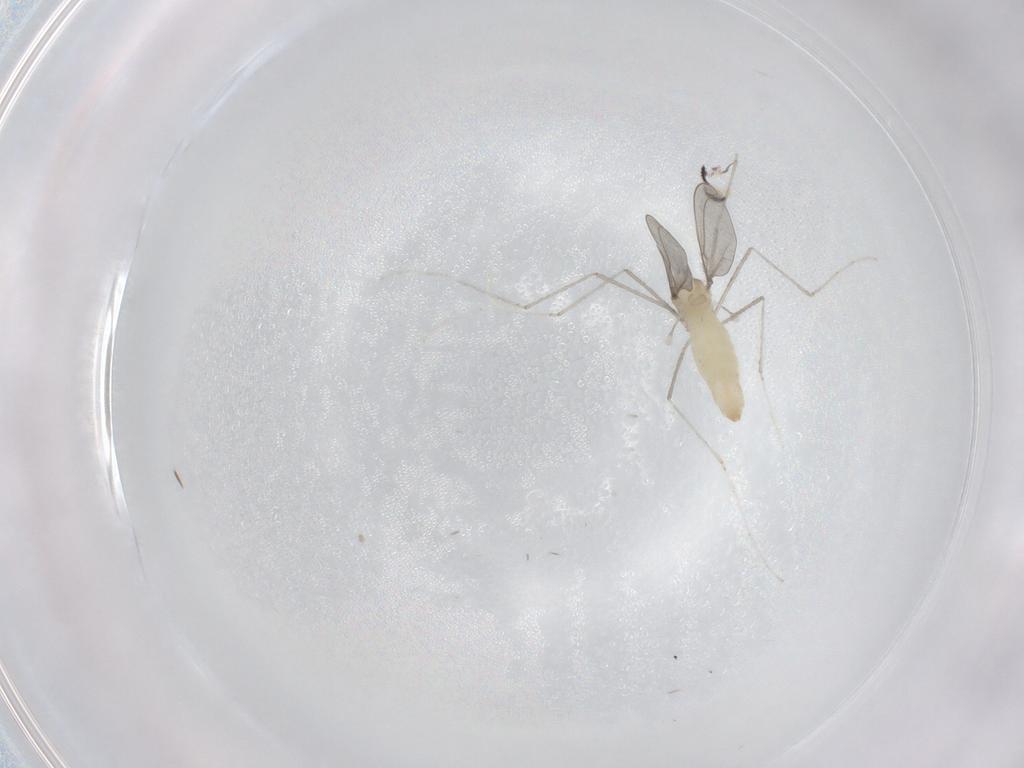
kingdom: Animalia
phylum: Arthropoda
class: Insecta
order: Diptera
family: Cecidomyiidae
